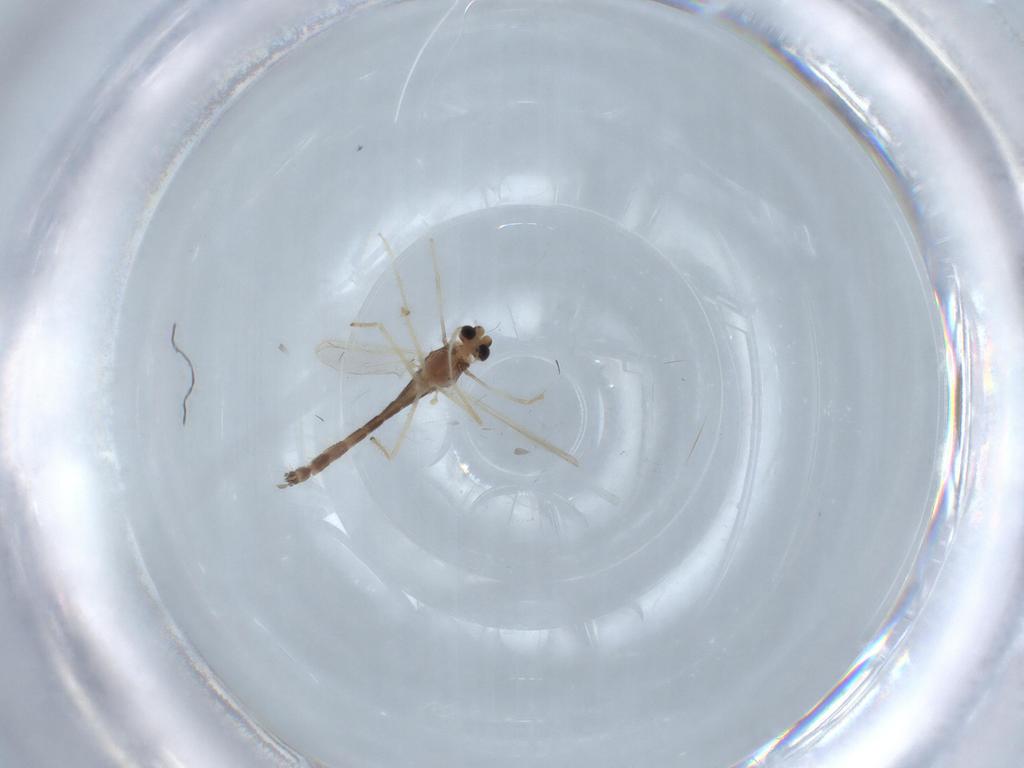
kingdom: Animalia
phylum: Arthropoda
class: Insecta
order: Diptera
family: Chironomidae
